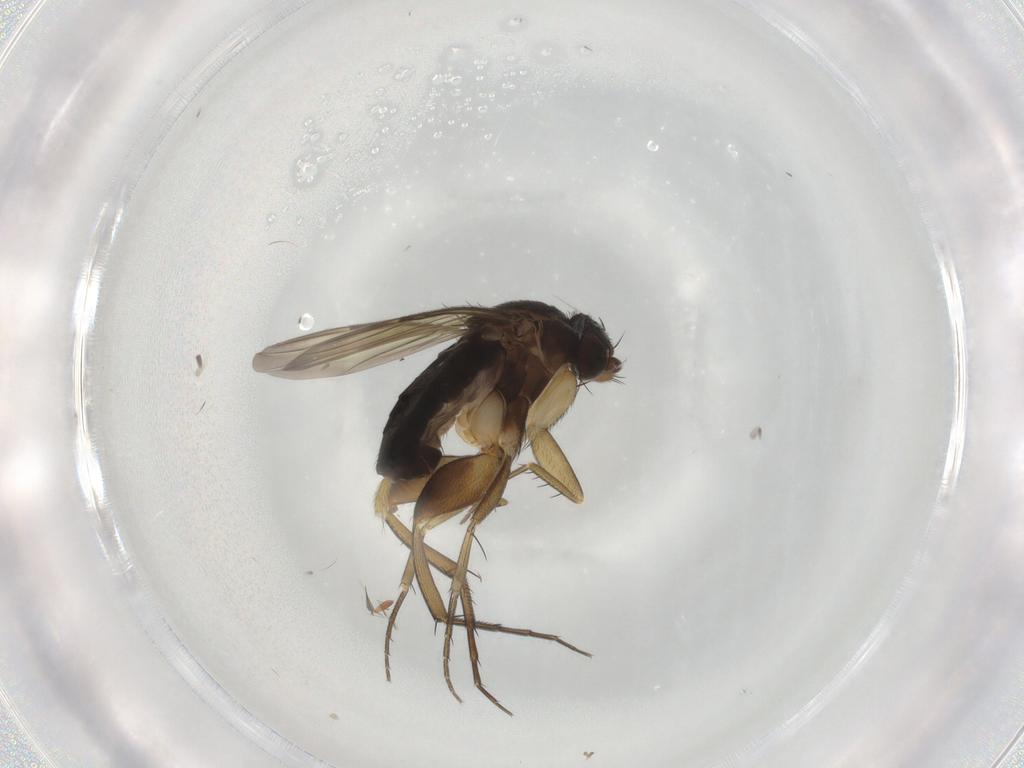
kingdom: Animalia
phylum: Arthropoda
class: Insecta
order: Diptera
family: Phoridae
